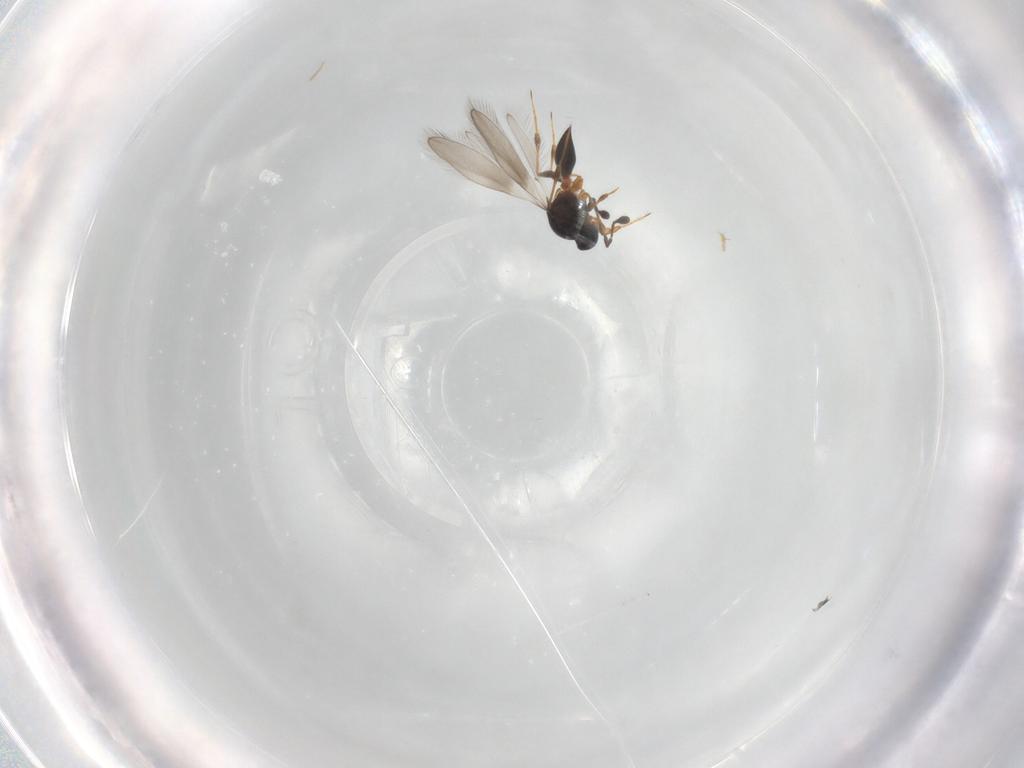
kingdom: Animalia
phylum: Arthropoda
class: Insecta
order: Hymenoptera
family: Platygastridae
